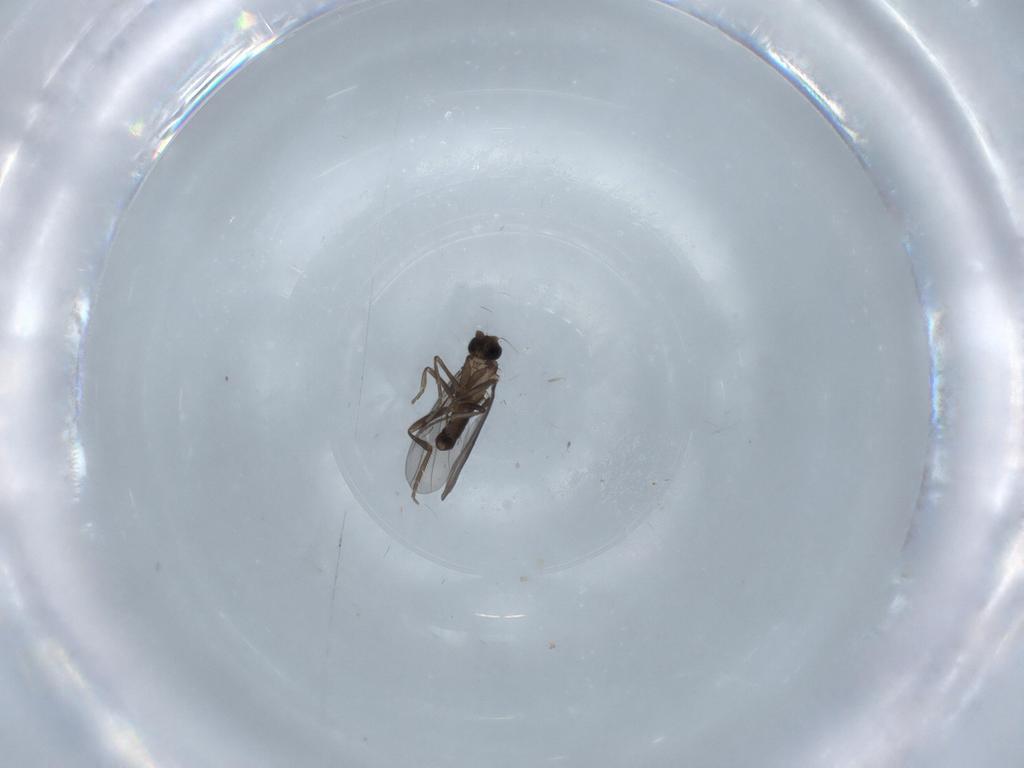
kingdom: Animalia
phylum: Arthropoda
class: Insecta
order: Diptera
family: Phoridae
